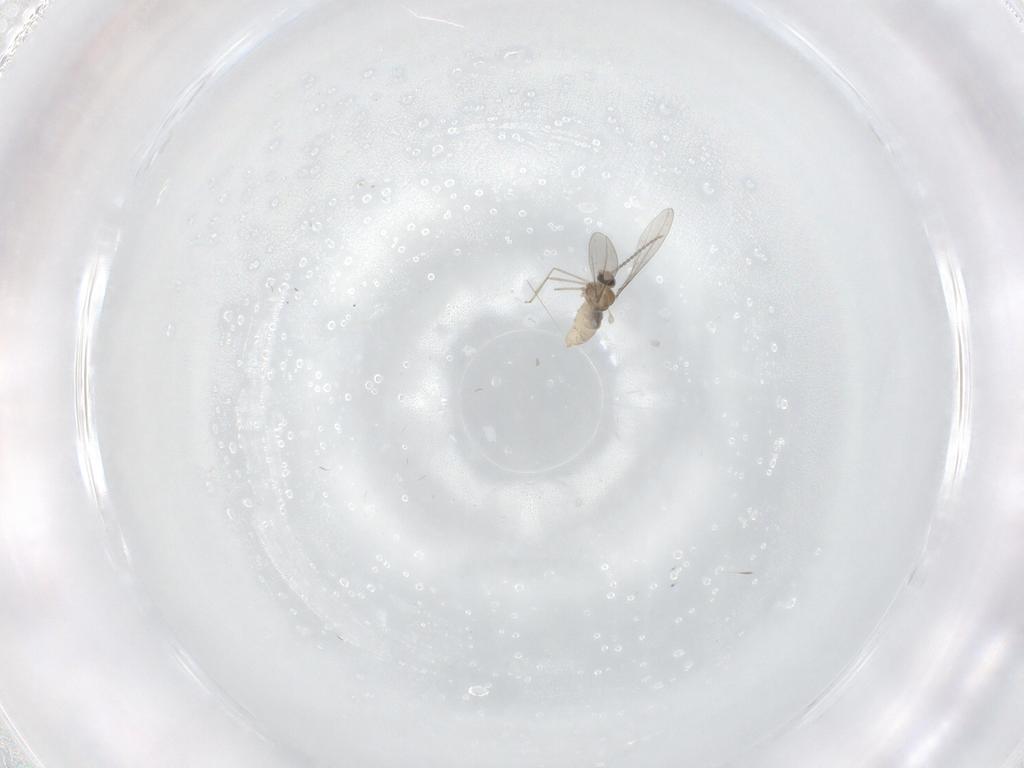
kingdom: Animalia
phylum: Arthropoda
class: Insecta
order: Diptera
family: Cecidomyiidae
